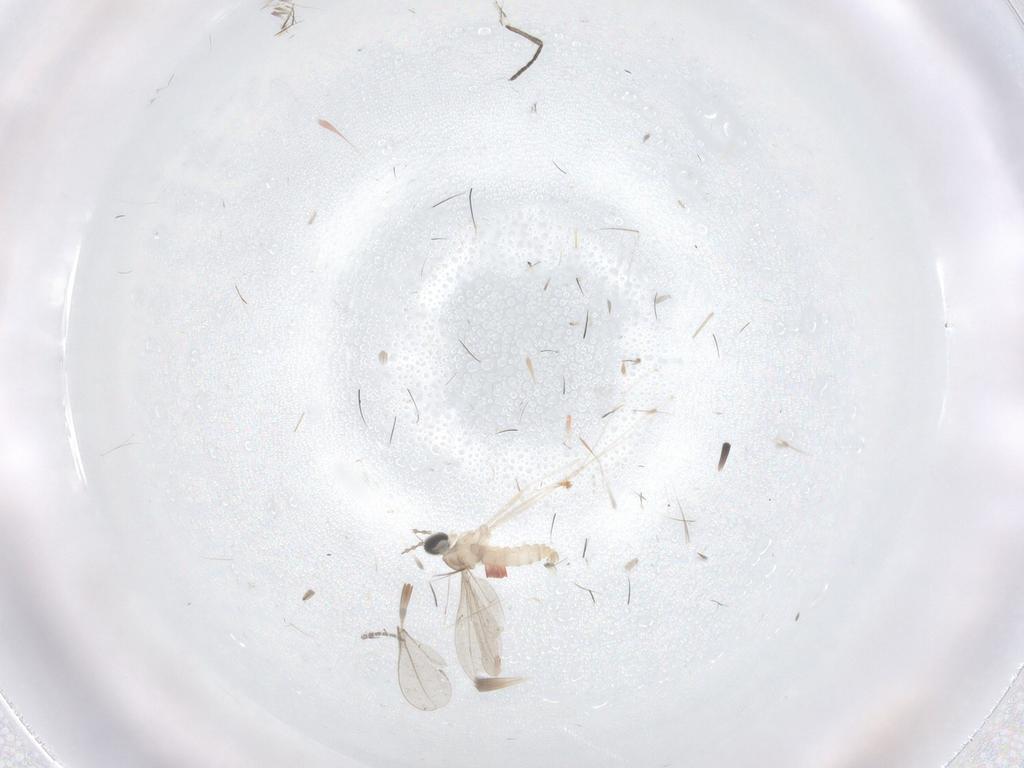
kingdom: Animalia
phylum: Arthropoda
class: Insecta
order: Diptera
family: Cecidomyiidae
